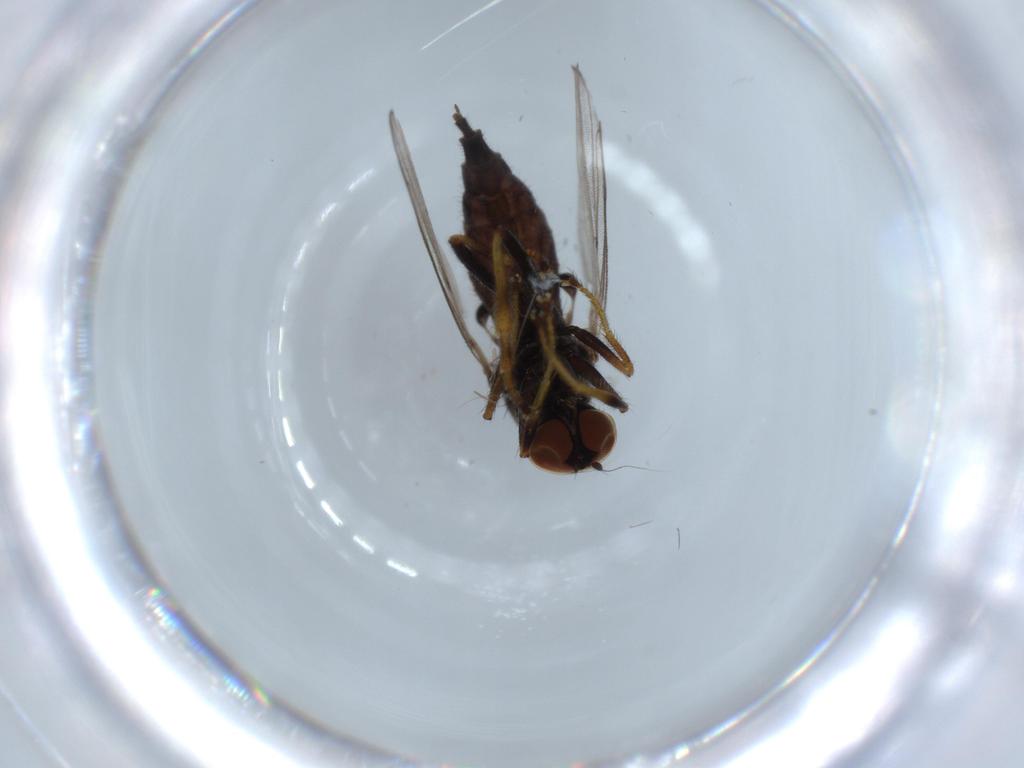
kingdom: Animalia
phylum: Arthropoda
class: Insecta
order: Diptera
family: Hybotidae
